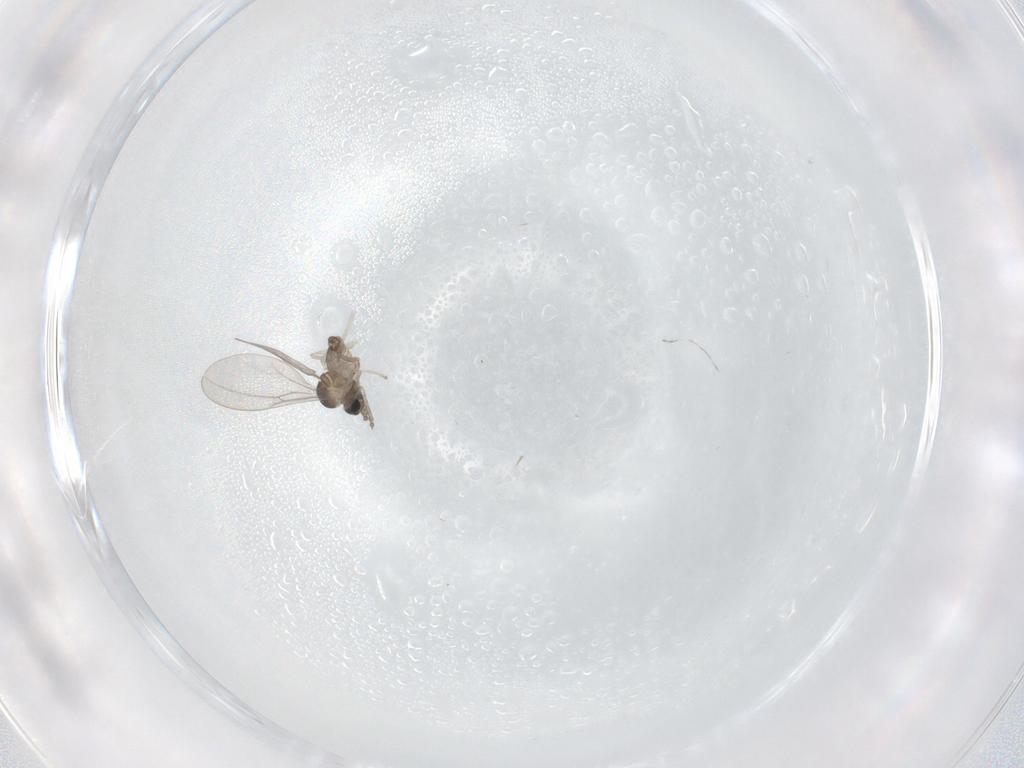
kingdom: Animalia
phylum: Arthropoda
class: Insecta
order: Diptera
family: Cecidomyiidae
